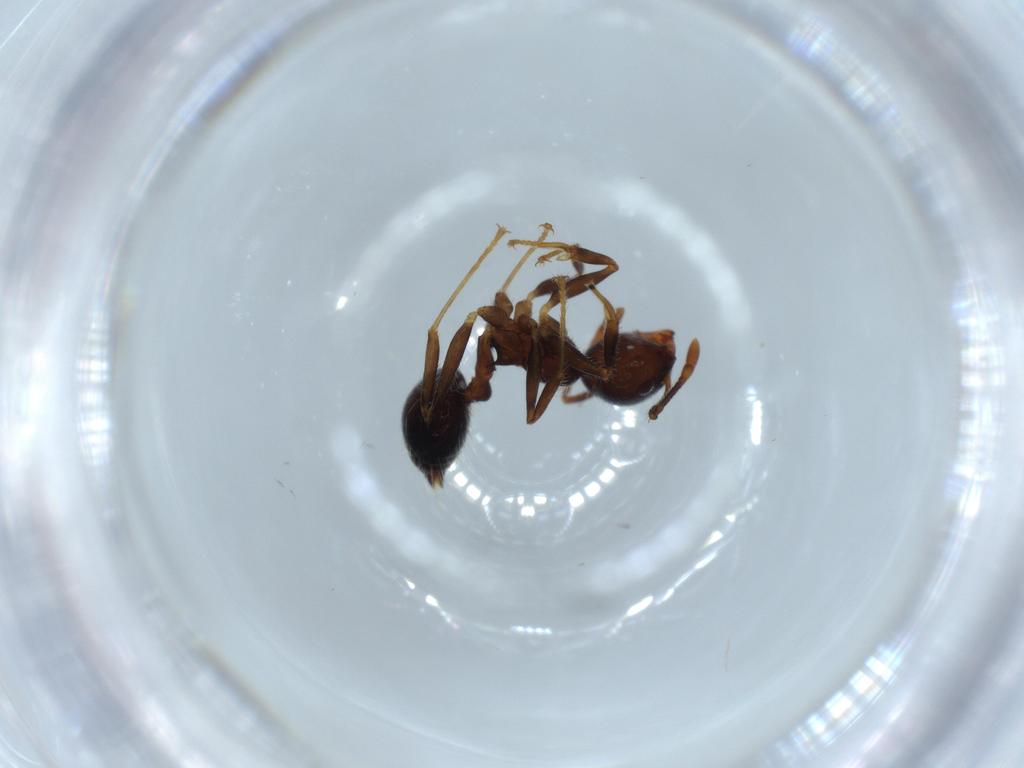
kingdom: Animalia
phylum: Arthropoda
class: Insecta
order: Hymenoptera
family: Formicidae
